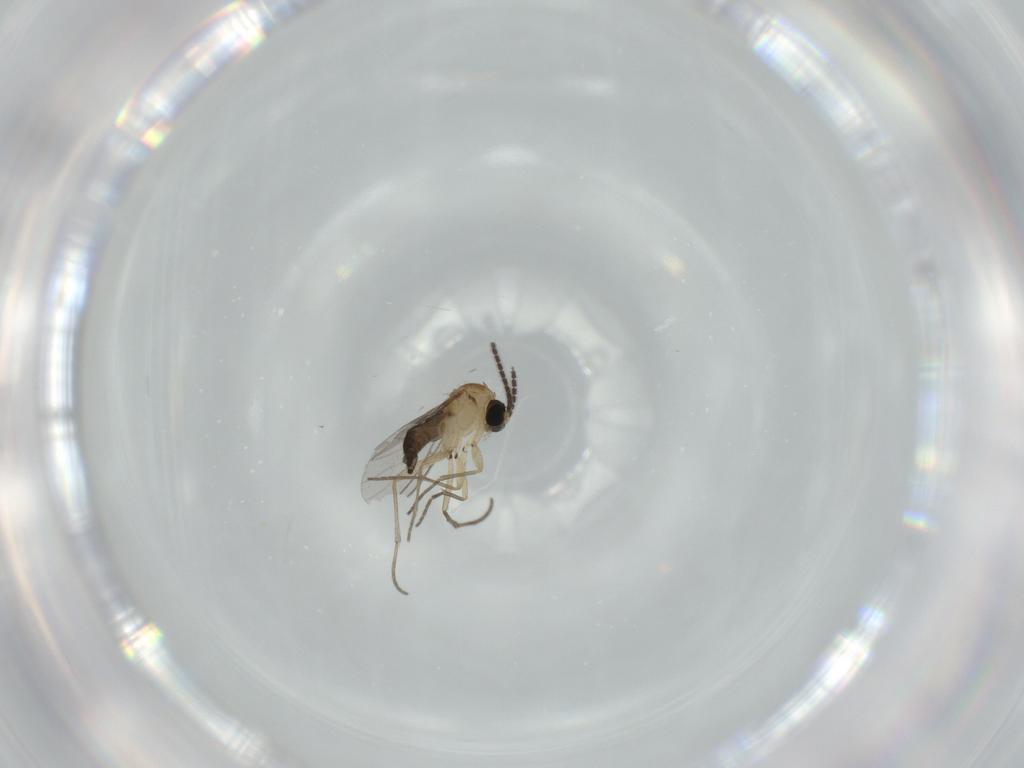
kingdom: Animalia
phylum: Arthropoda
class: Insecta
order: Diptera
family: Sciaridae
